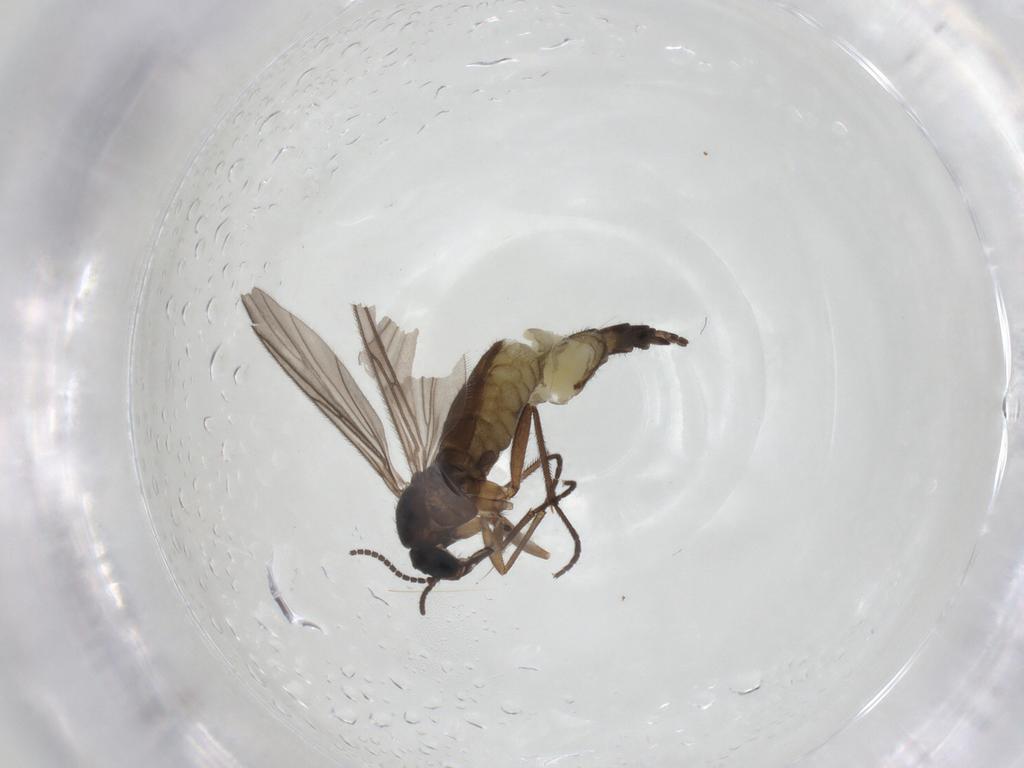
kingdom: Animalia
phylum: Arthropoda
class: Insecta
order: Diptera
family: Sciaridae
